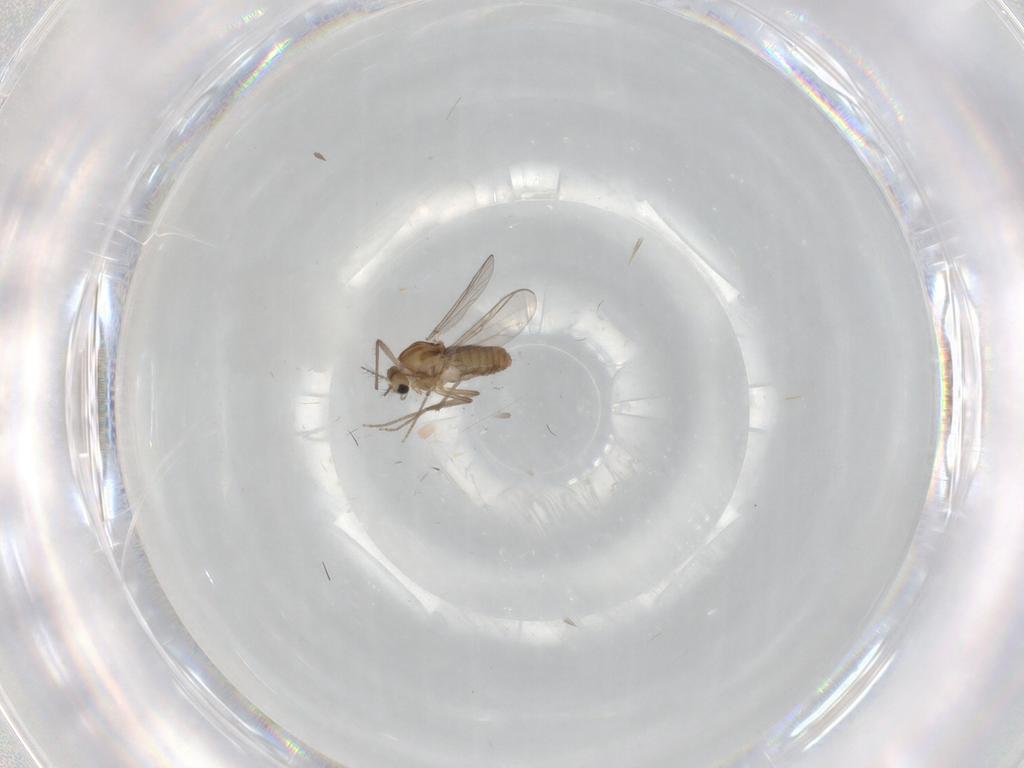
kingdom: Animalia
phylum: Arthropoda
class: Insecta
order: Diptera
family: Chironomidae
